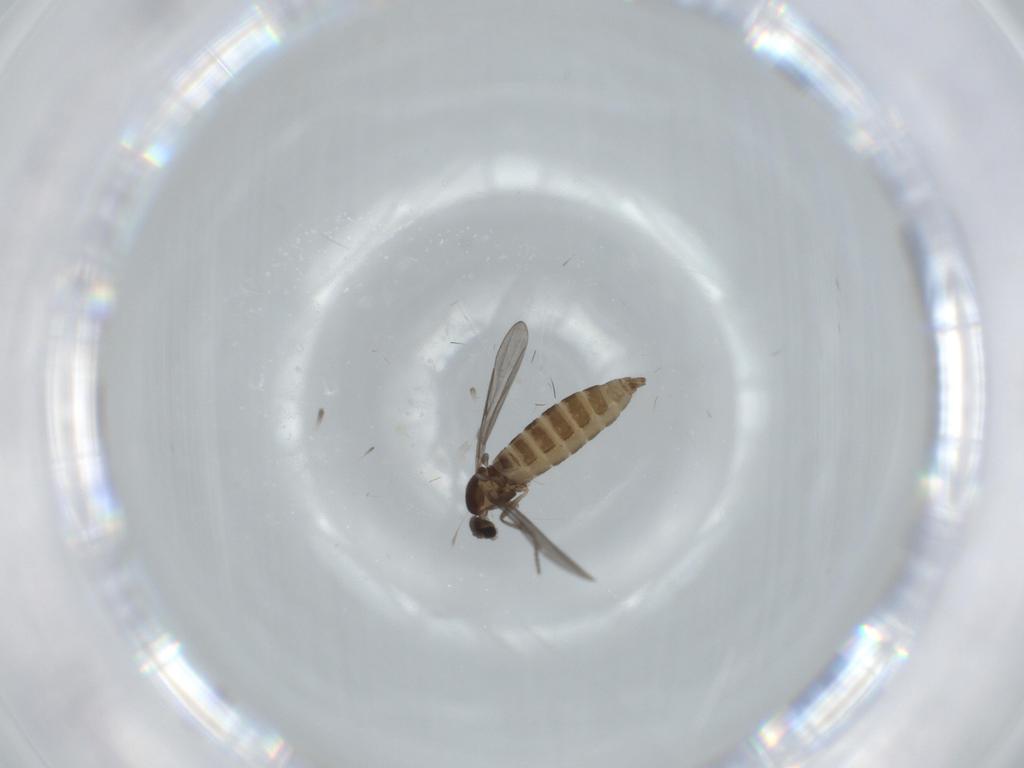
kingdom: Animalia
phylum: Arthropoda
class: Insecta
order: Diptera
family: Cecidomyiidae
